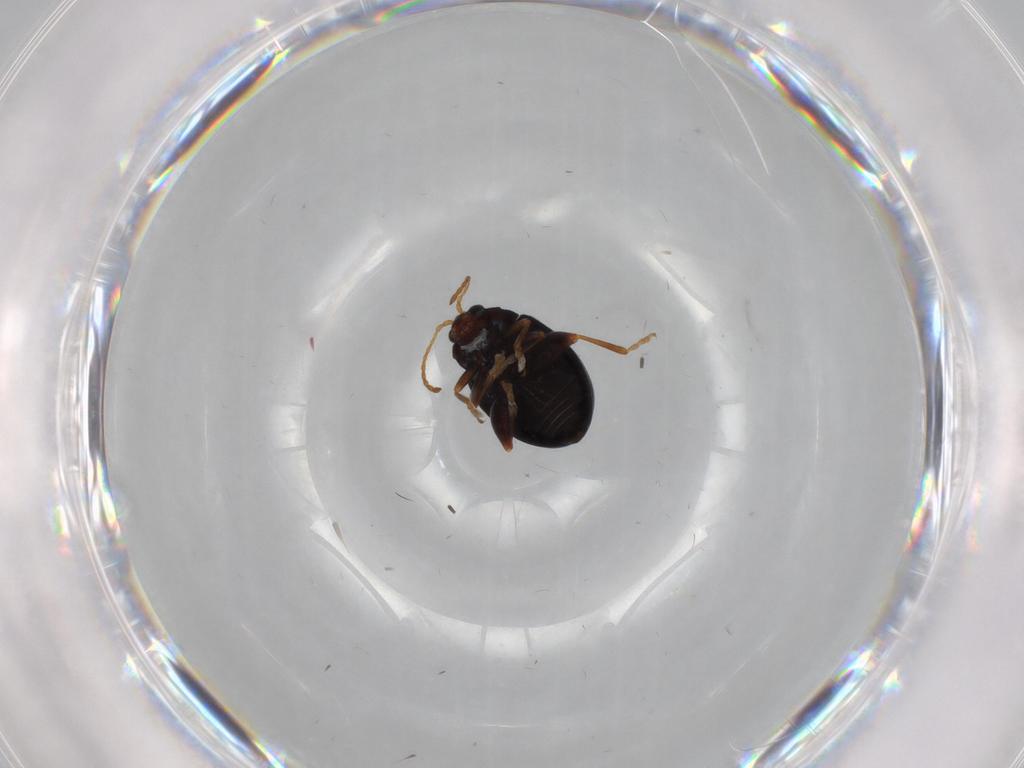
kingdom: Animalia
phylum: Arthropoda
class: Insecta
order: Coleoptera
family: Chrysomelidae
